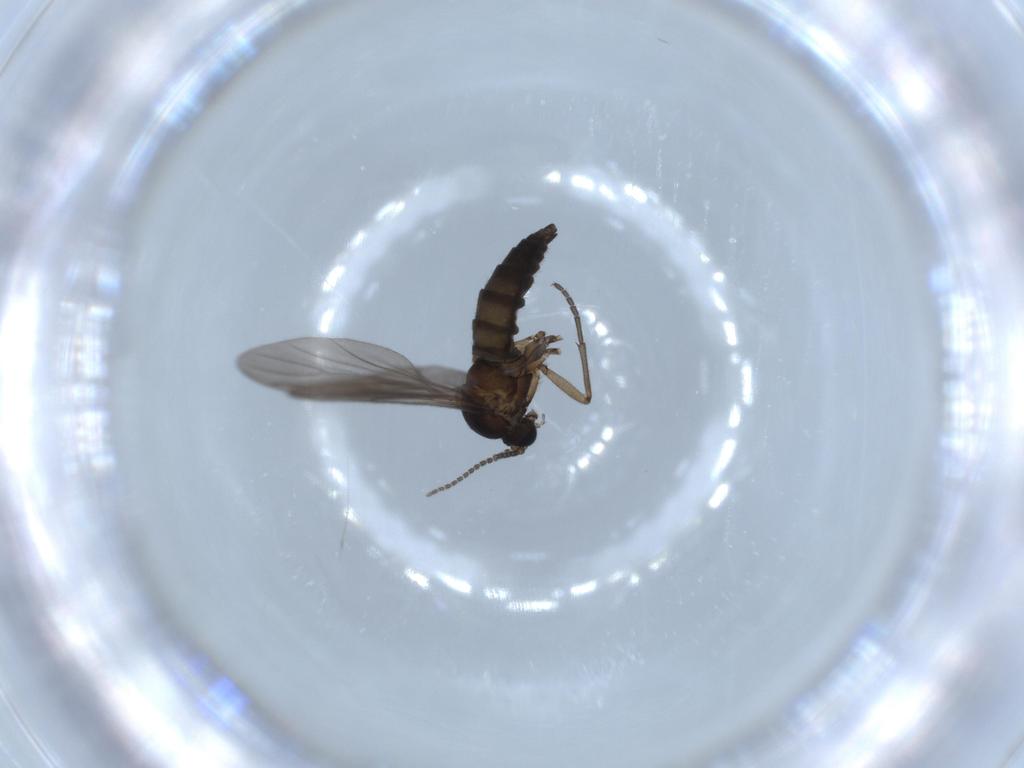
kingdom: Animalia
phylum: Arthropoda
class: Insecta
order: Diptera
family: Sciaridae
